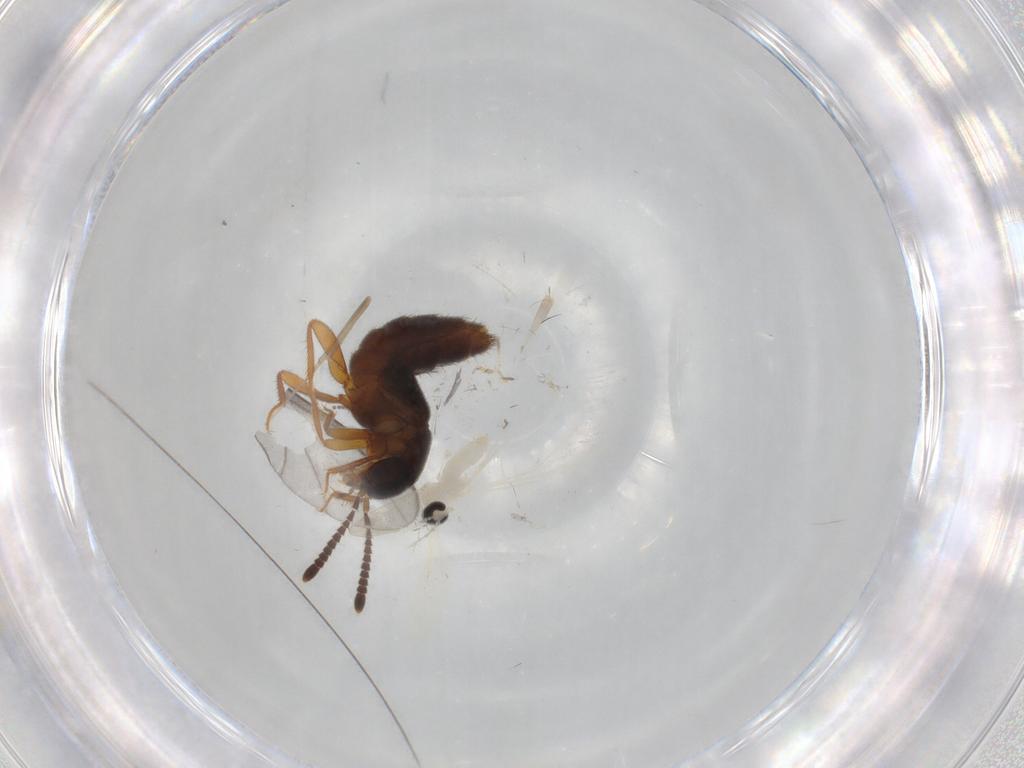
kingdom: Animalia
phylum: Arthropoda
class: Insecta
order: Coleoptera
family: Staphylinidae
